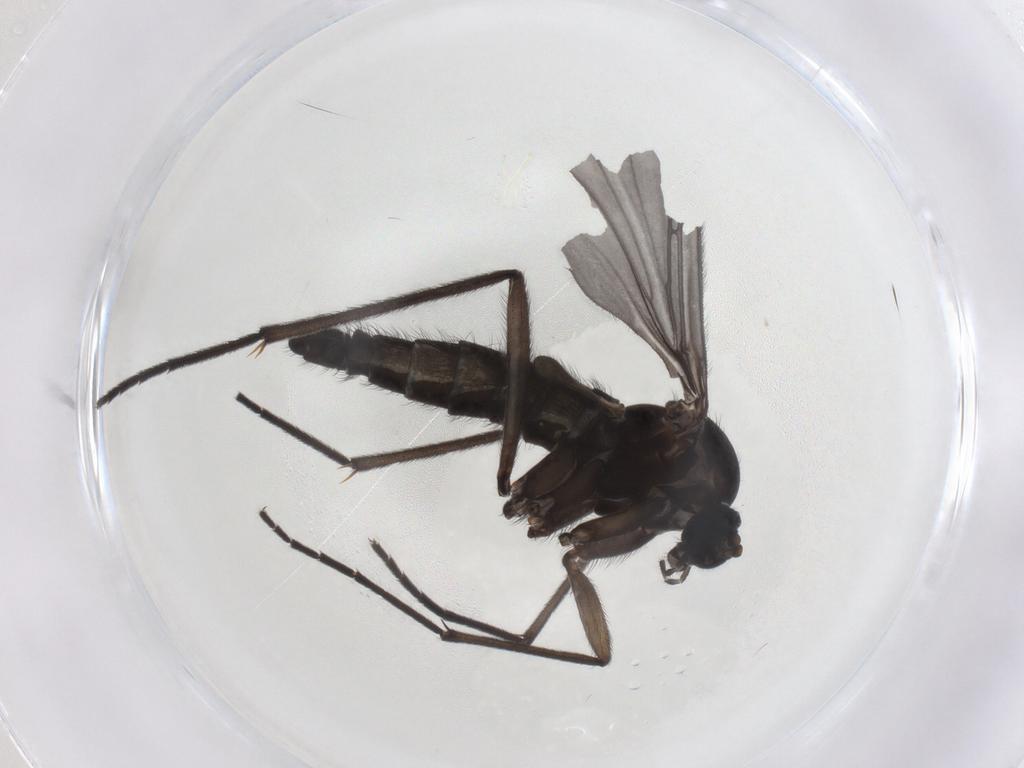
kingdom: Animalia
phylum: Arthropoda
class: Insecta
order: Diptera
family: Sciaridae
